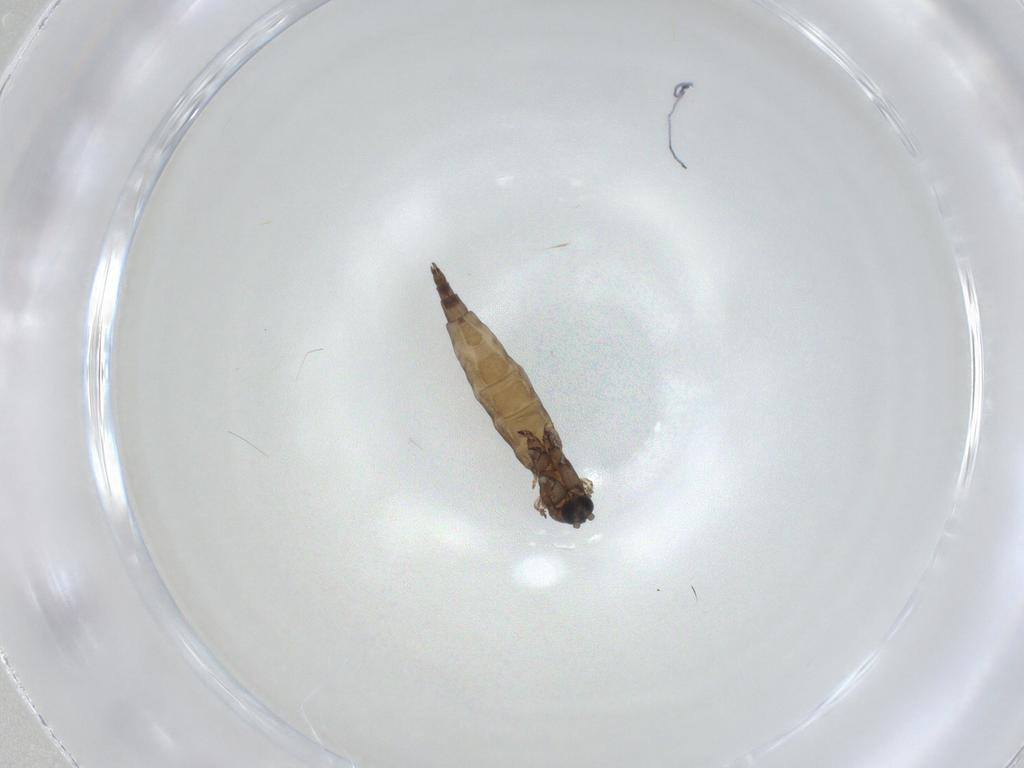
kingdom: Animalia
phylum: Arthropoda
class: Insecta
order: Diptera
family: Sciaridae
